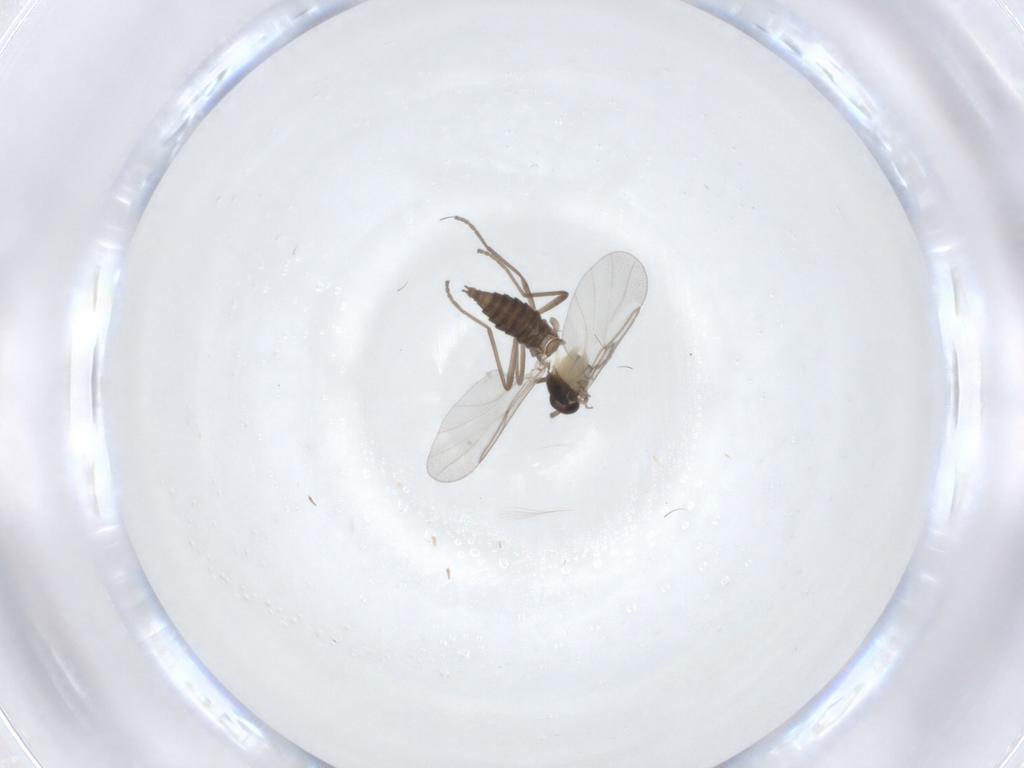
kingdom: Animalia
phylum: Arthropoda
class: Insecta
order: Diptera
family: Cecidomyiidae
